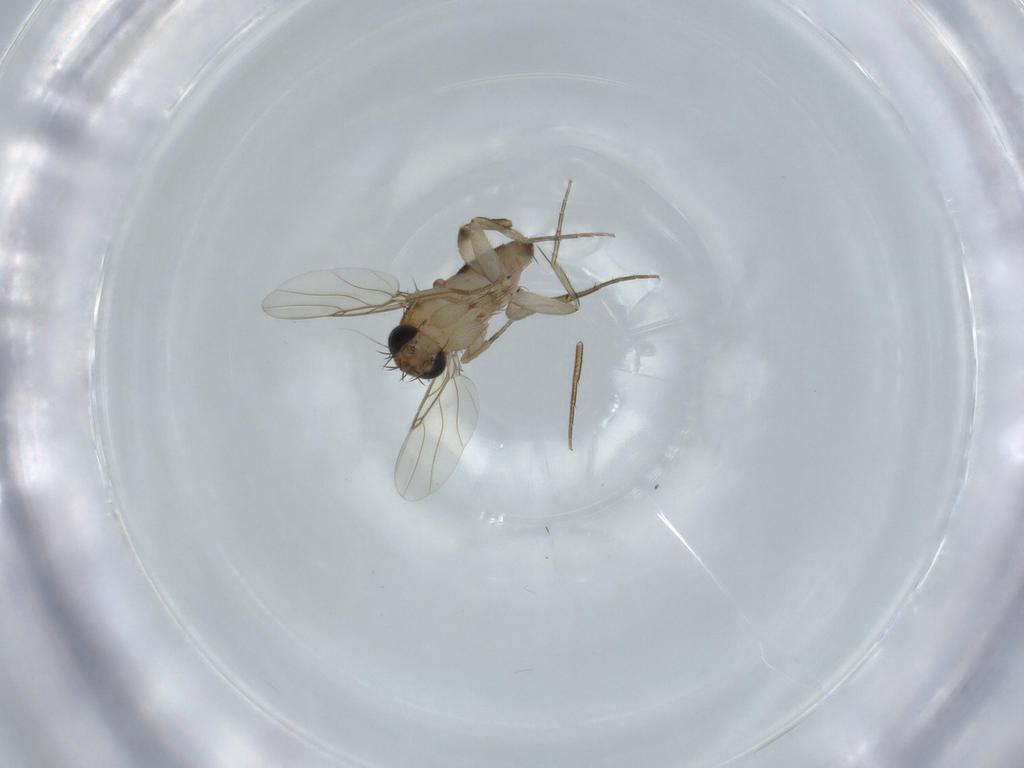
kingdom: Animalia
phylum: Arthropoda
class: Insecta
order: Diptera
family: Phoridae
